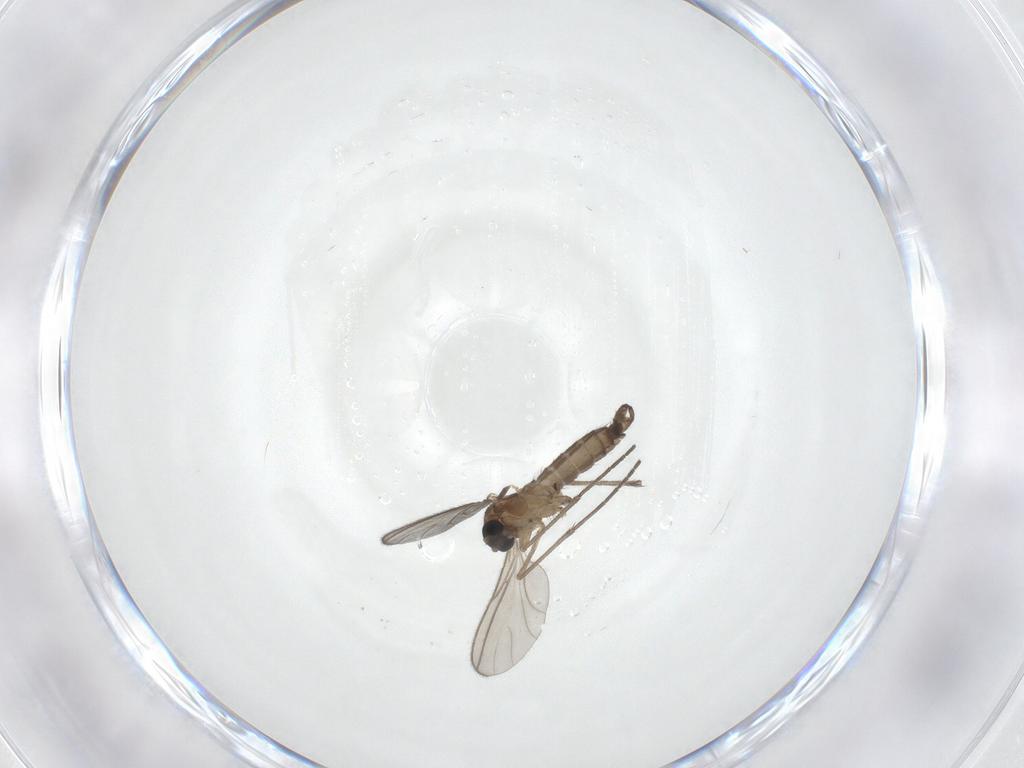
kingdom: Animalia
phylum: Arthropoda
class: Insecta
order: Diptera
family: Sciaridae
